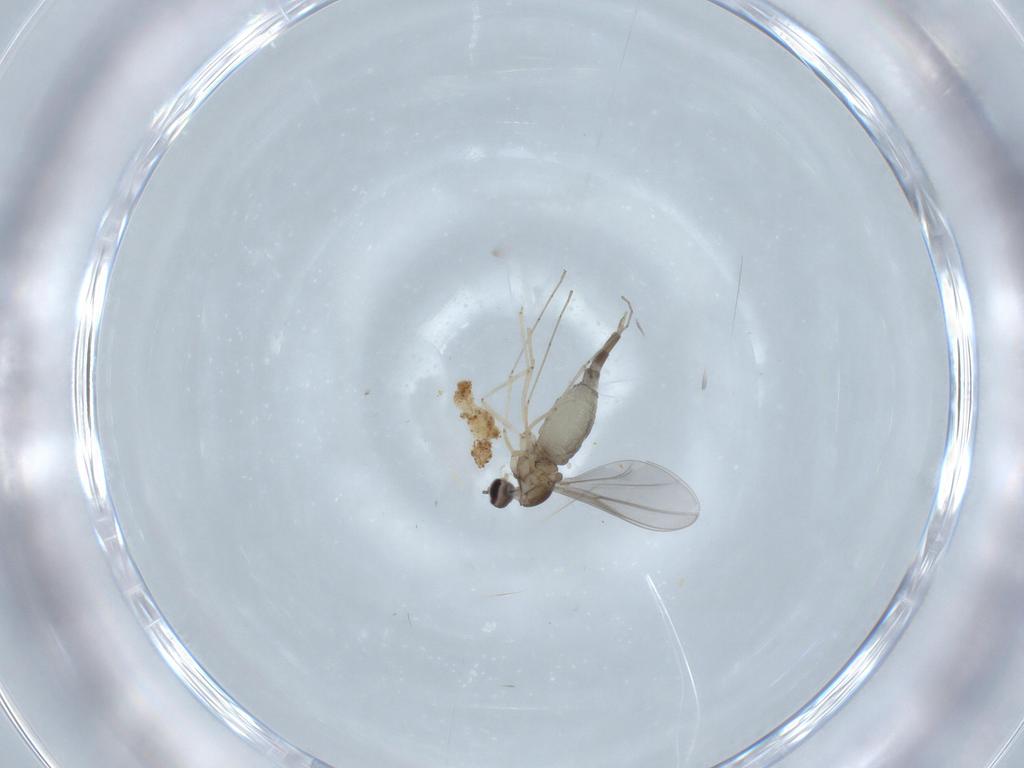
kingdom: Animalia
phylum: Arthropoda
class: Insecta
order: Diptera
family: Cecidomyiidae
